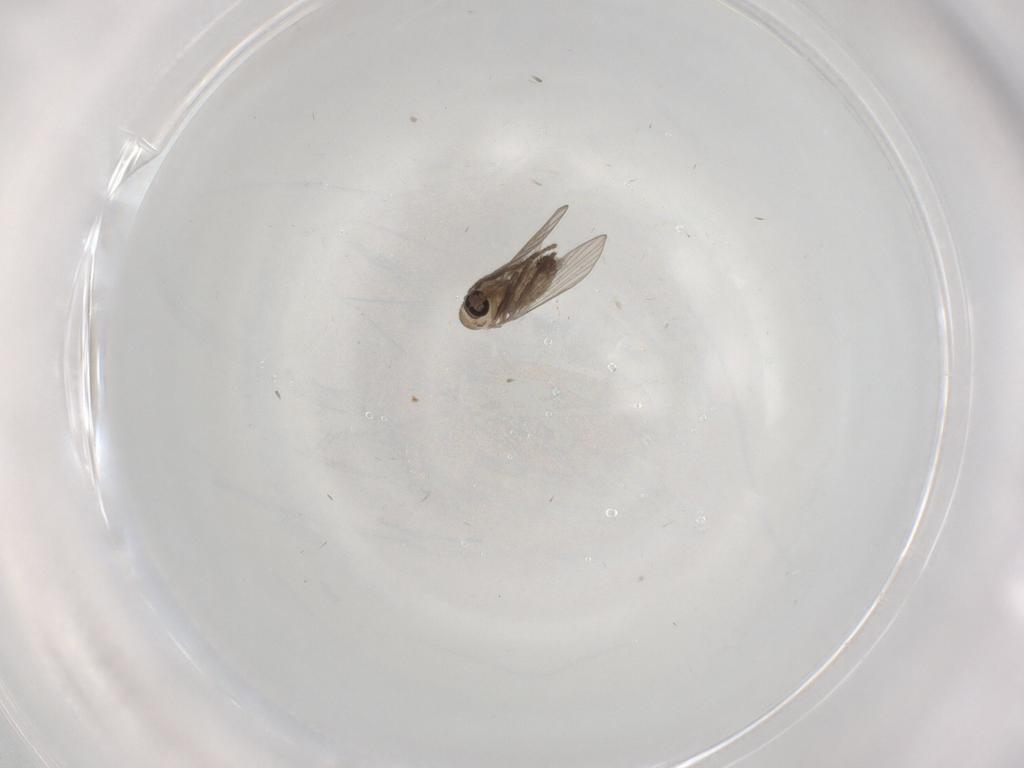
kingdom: Animalia
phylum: Arthropoda
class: Insecta
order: Diptera
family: Psychodidae
